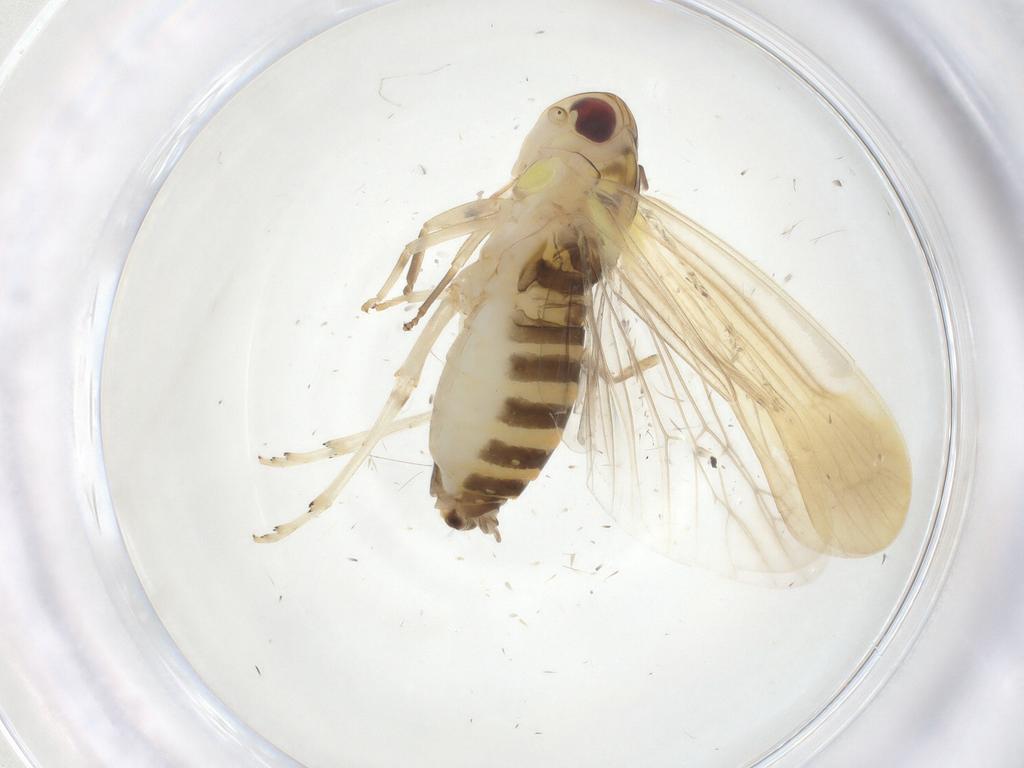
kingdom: Animalia
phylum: Arthropoda
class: Insecta
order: Hemiptera
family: Achilidae
